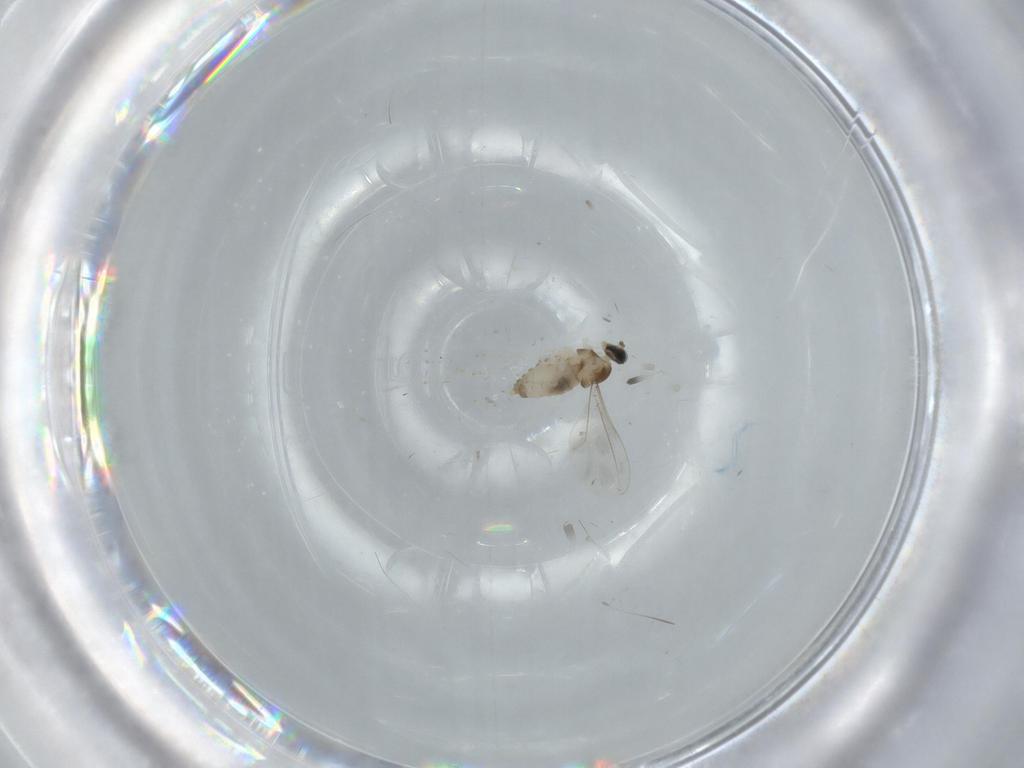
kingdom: Animalia
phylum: Arthropoda
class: Insecta
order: Diptera
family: Cecidomyiidae
